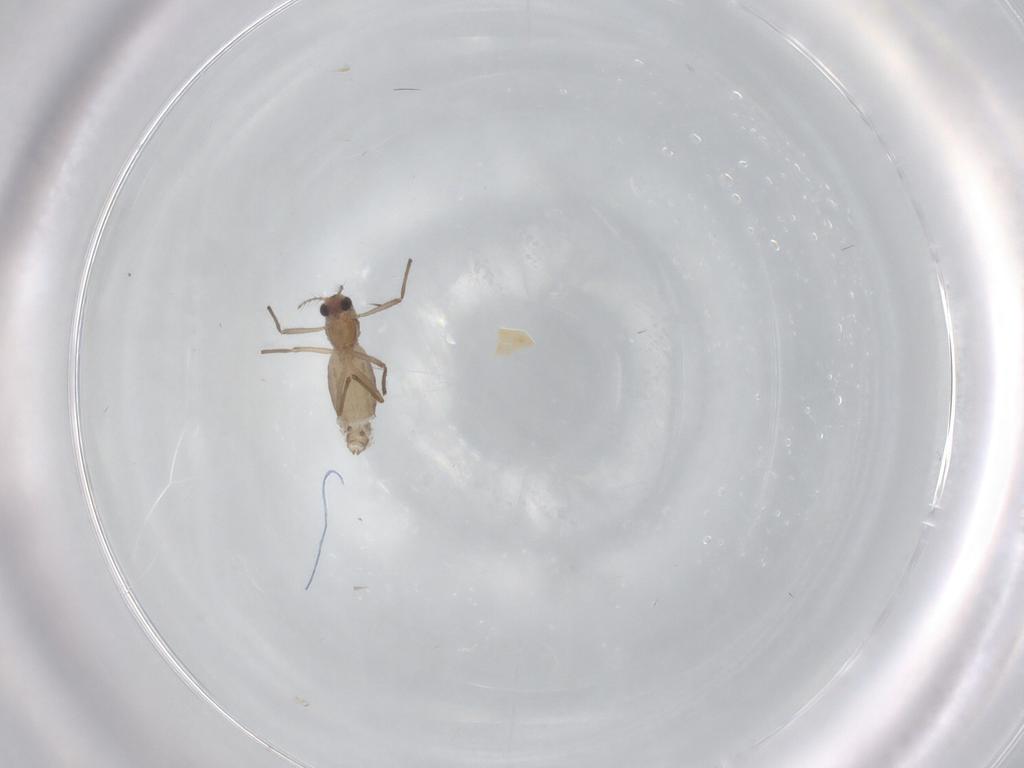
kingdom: Animalia
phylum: Arthropoda
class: Insecta
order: Diptera
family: Chironomidae
